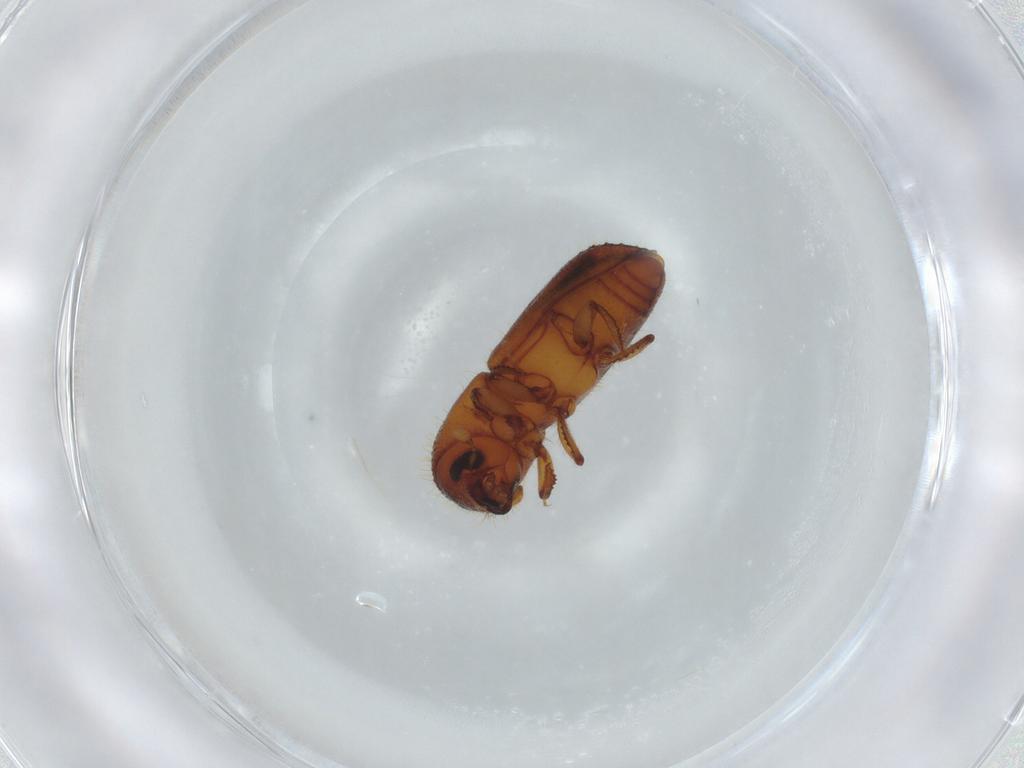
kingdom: Animalia
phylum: Arthropoda
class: Insecta
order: Coleoptera
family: Curculionidae
